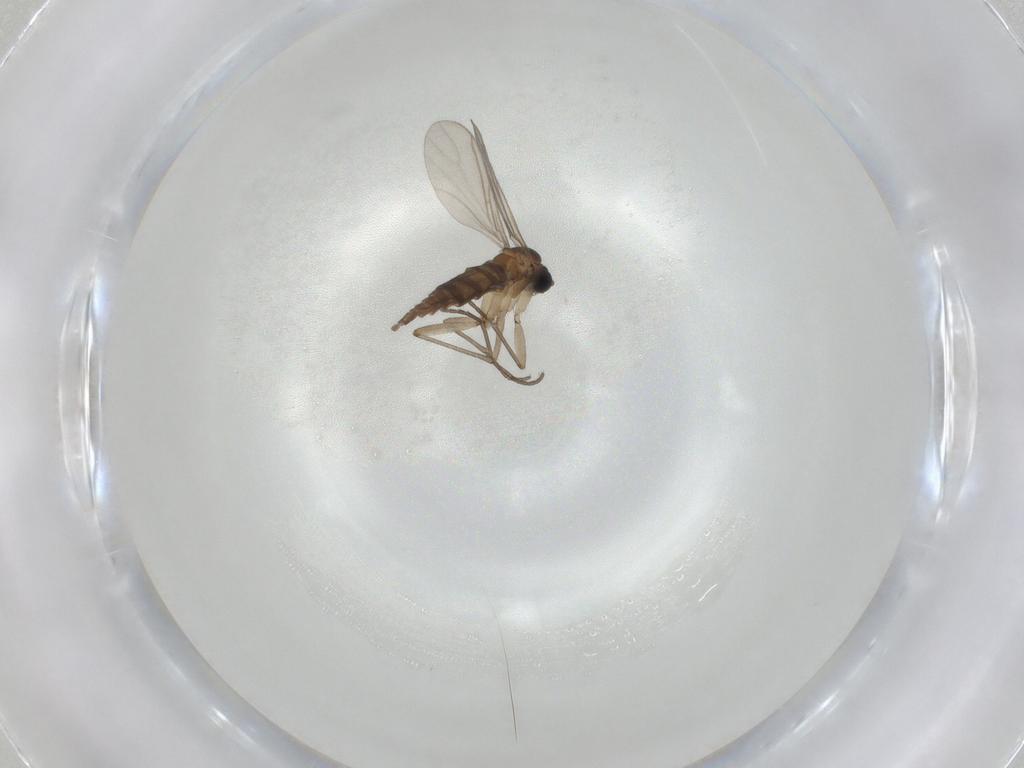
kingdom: Animalia
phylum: Arthropoda
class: Insecta
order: Diptera
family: Sciaridae
